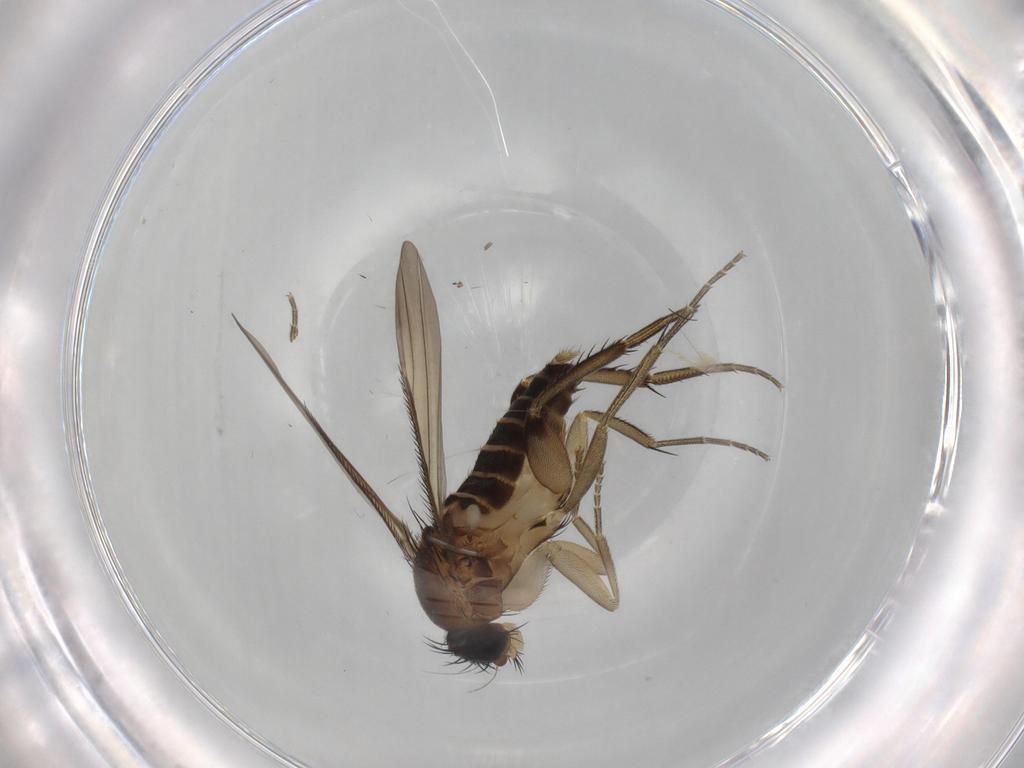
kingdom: Animalia
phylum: Arthropoda
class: Insecta
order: Diptera
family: Phoridae
